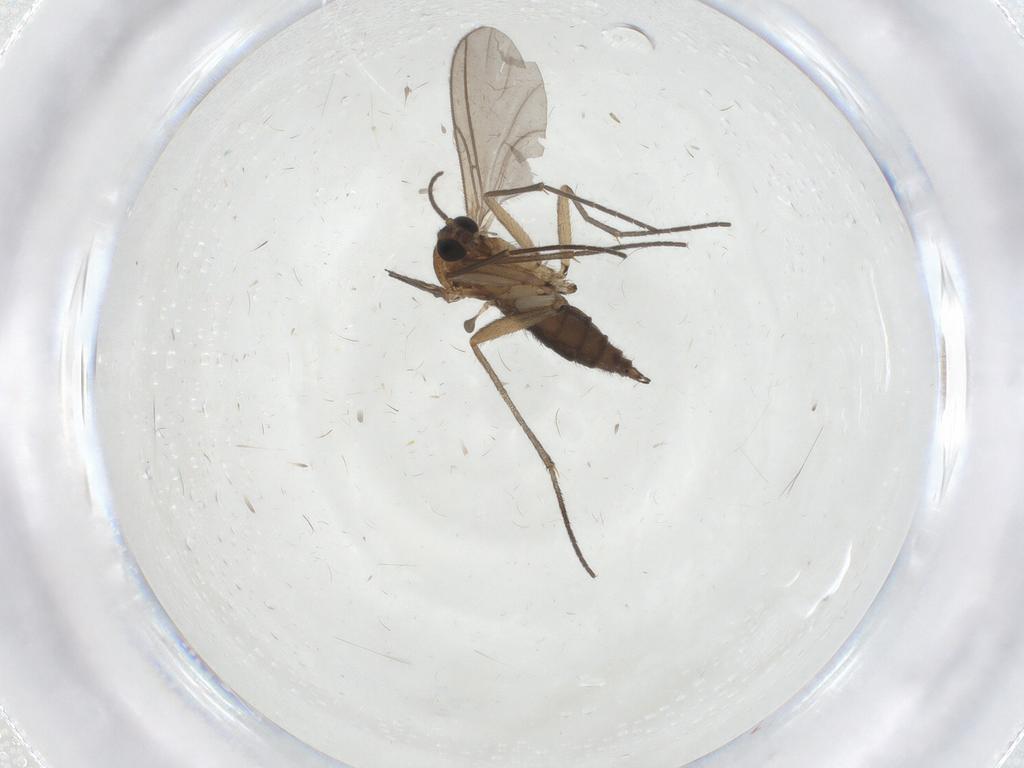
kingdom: Animalia
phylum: Arthropoda
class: Insecta
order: Diptera
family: Sciaridae
